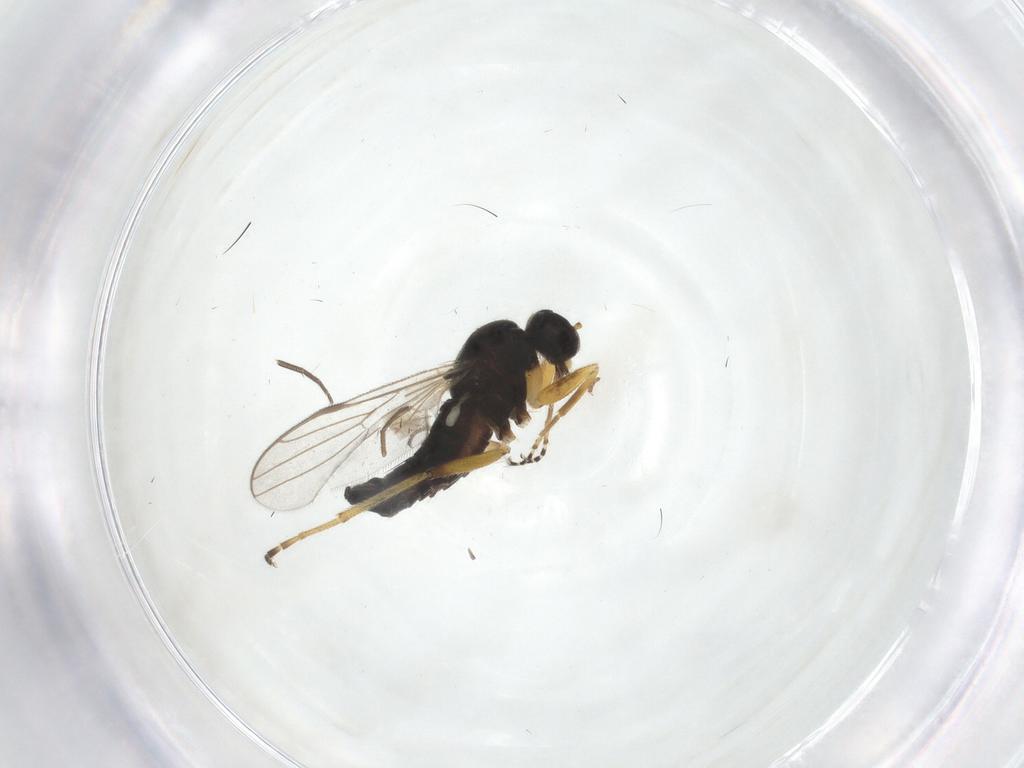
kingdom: Animalia
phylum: Arthropoda
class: Insecta
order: Diptera
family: Hybotidae
